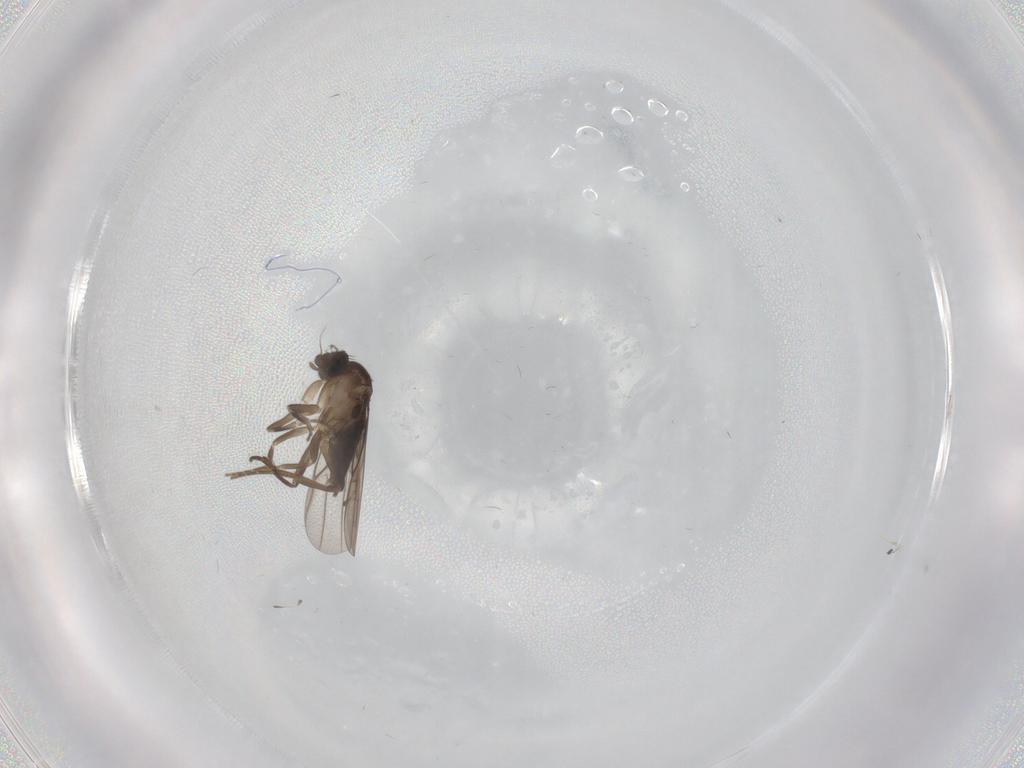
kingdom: Animalia
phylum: Arthropoda
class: Insecta
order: Diptera
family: Phoridae
